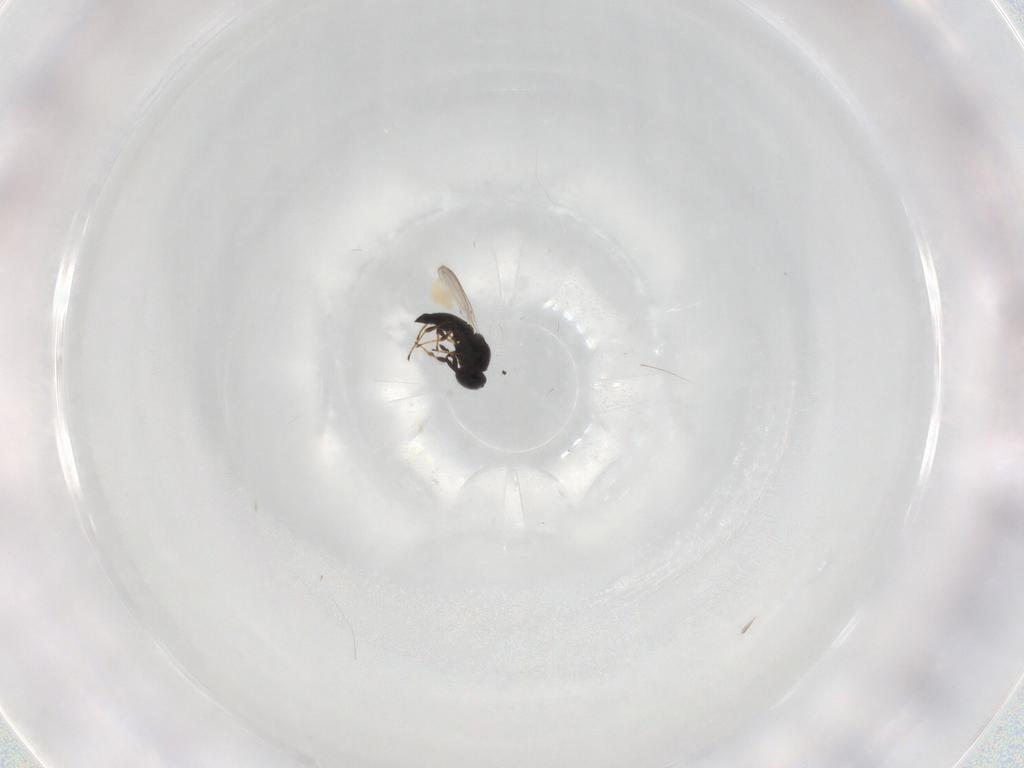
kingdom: Animalia
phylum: Arthropoda
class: Insecta
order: Hymenoptera
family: Platygastridae
